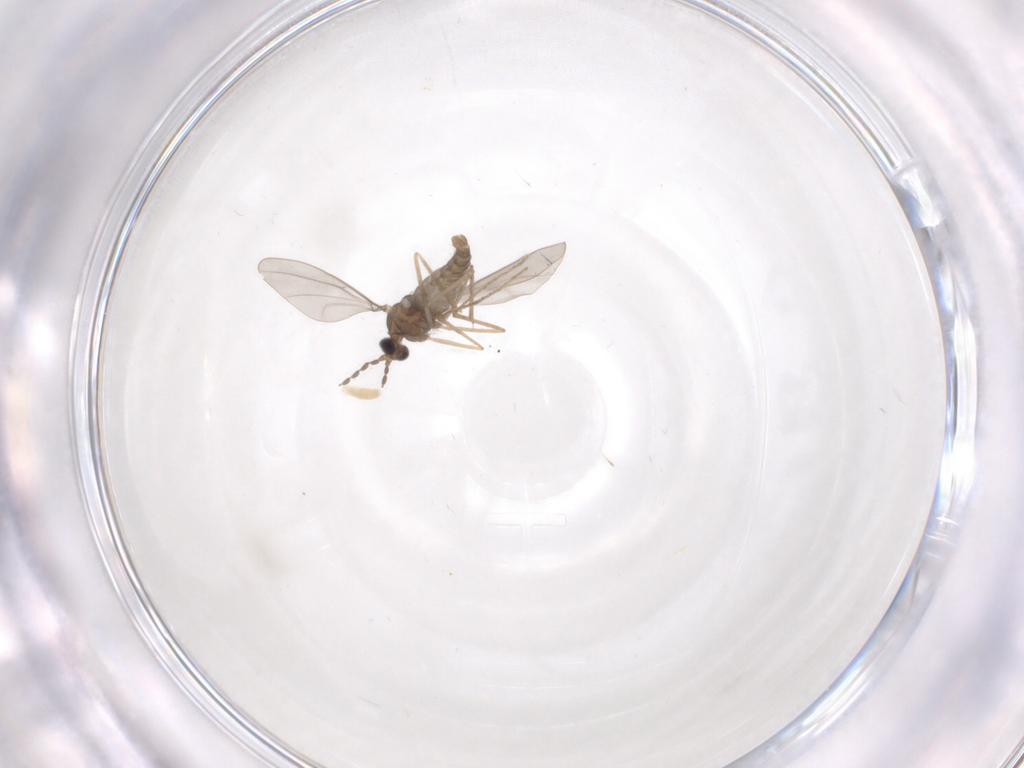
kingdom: Animalia
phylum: Arthropoda
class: Insecta
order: Diptera
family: Cecidomyiidae
